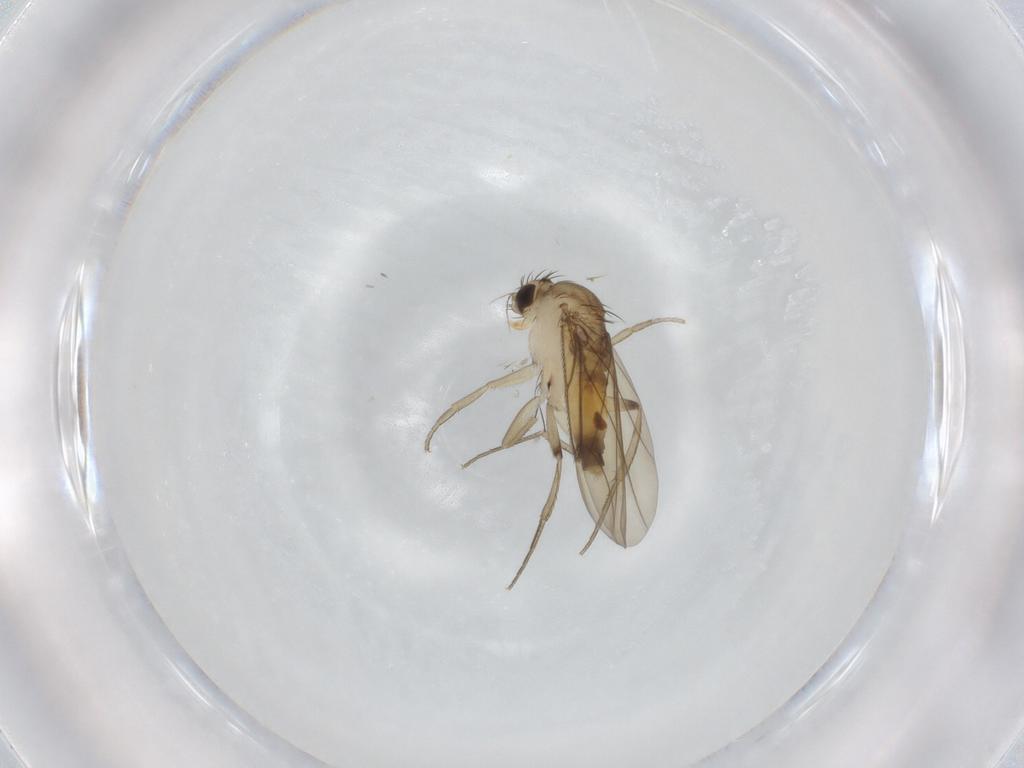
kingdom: Animalia
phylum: Arthropoda
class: Insecta
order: Diptera
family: Phoridae
